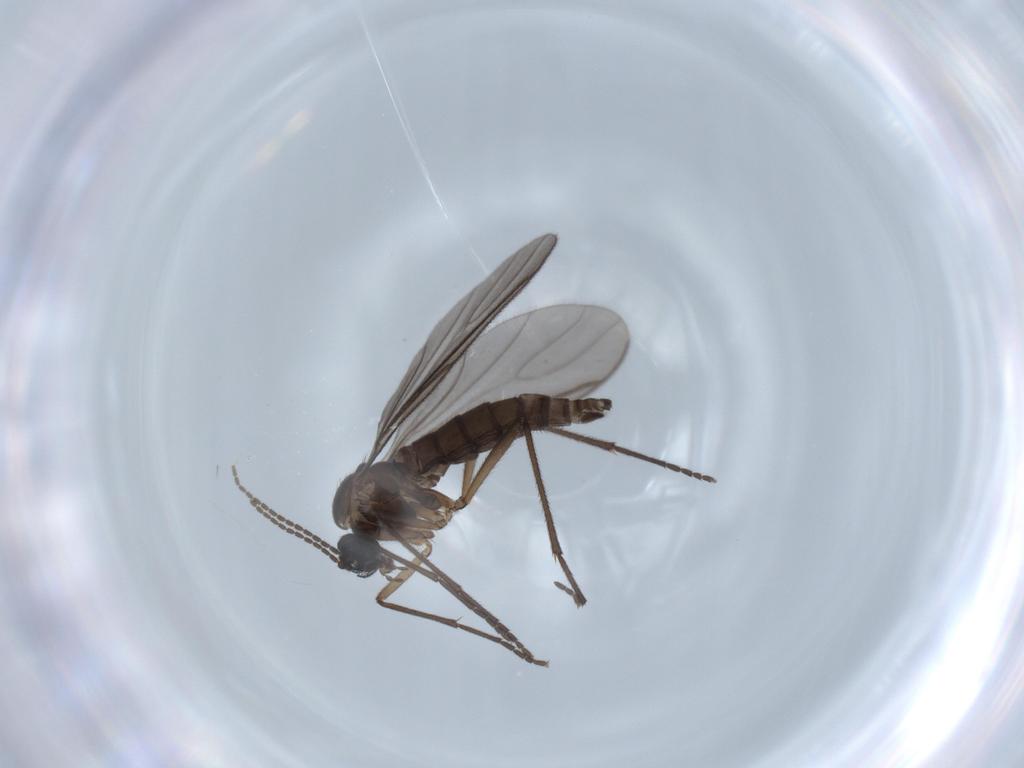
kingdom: Animalia
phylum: Arthropoda
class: Insecta
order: Diptera
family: Sciaridae
